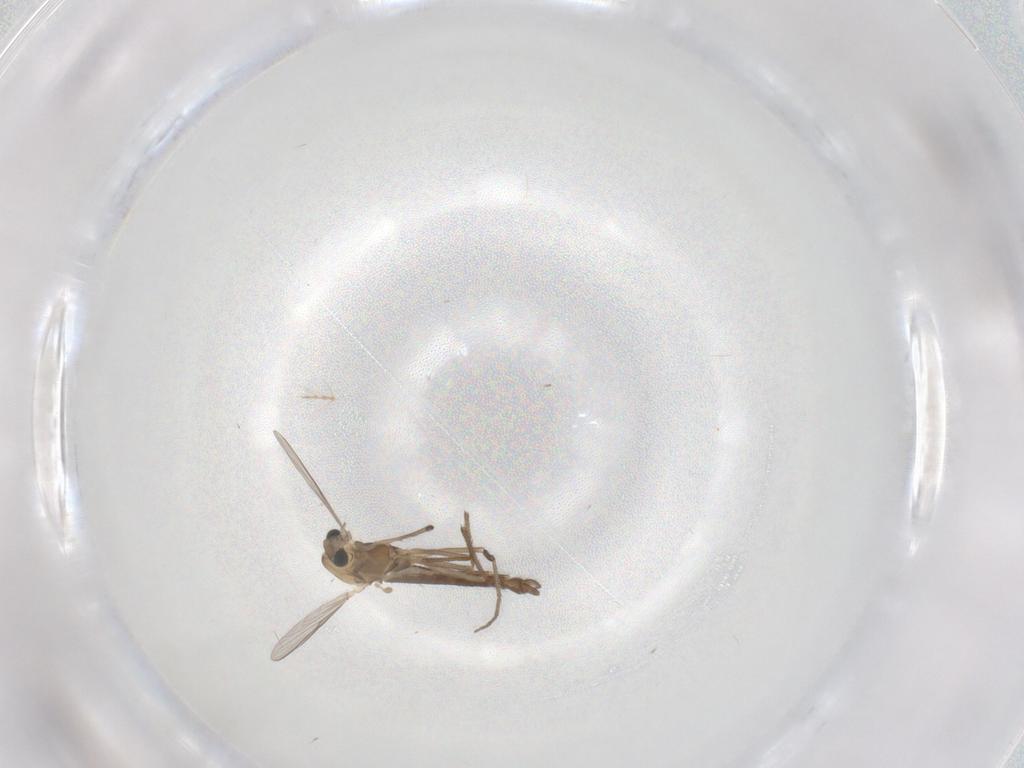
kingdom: Animalia
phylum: Arthropoda
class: Insecta
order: Diptera
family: Chironomidae
